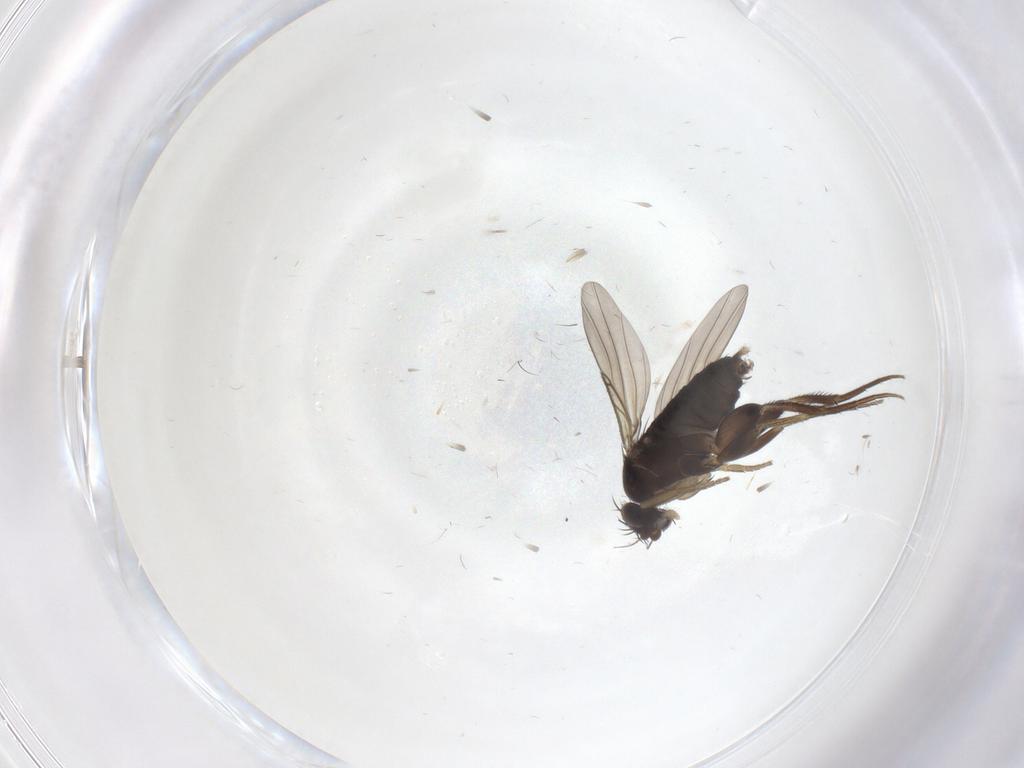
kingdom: Animalia
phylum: Arthropoda
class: Insecta
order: Diptera
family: Phoridae
